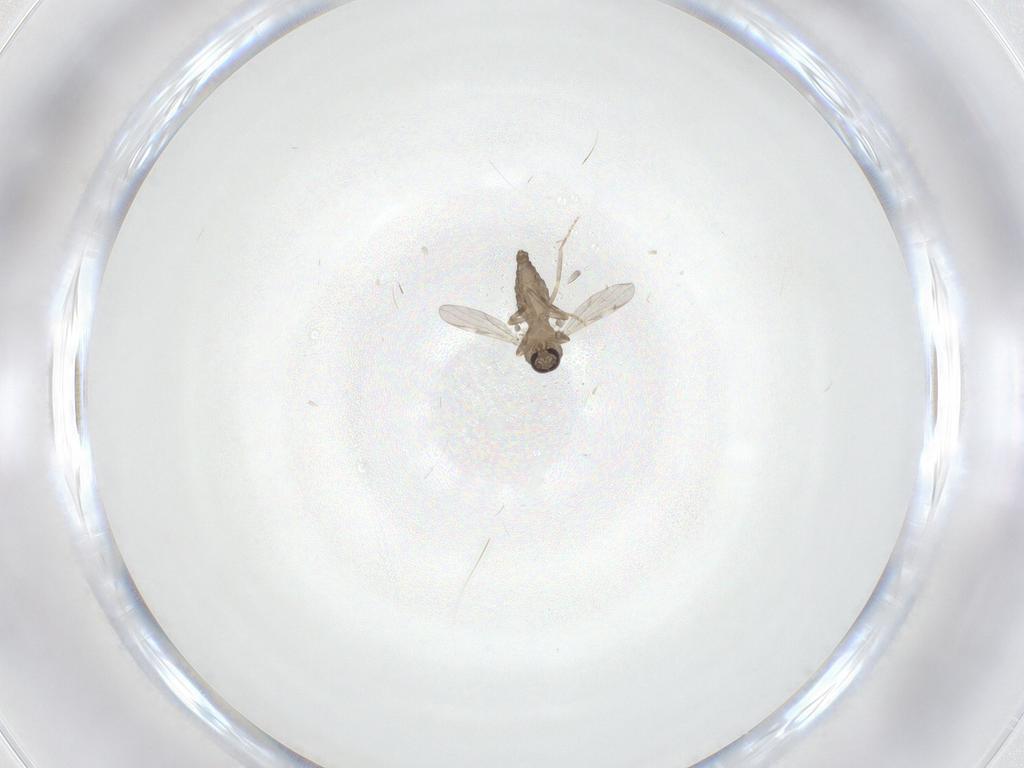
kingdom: Animalia
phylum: Arthropoda
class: Insecta
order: Diptera
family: Ceratopogonidae
